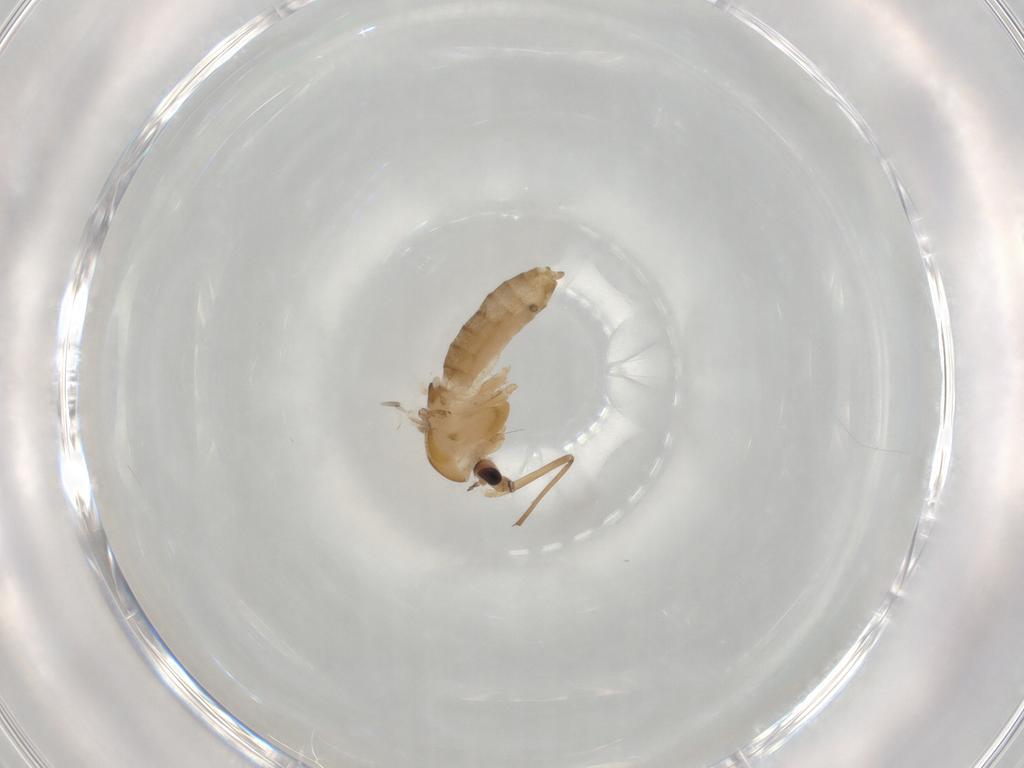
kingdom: Animalia
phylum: Arthropoda
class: Insecta
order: Diptera
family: Chironomidae
